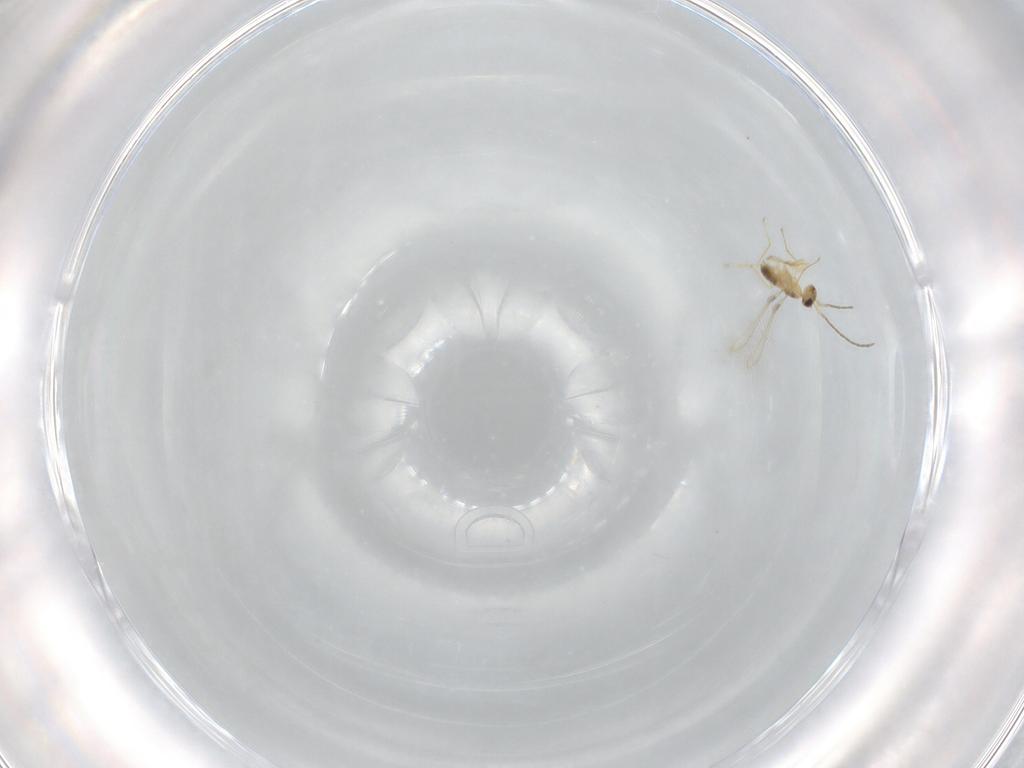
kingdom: Animalia
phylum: Arthropoda
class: Insecta
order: Hymenoptera
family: Mymaridae
